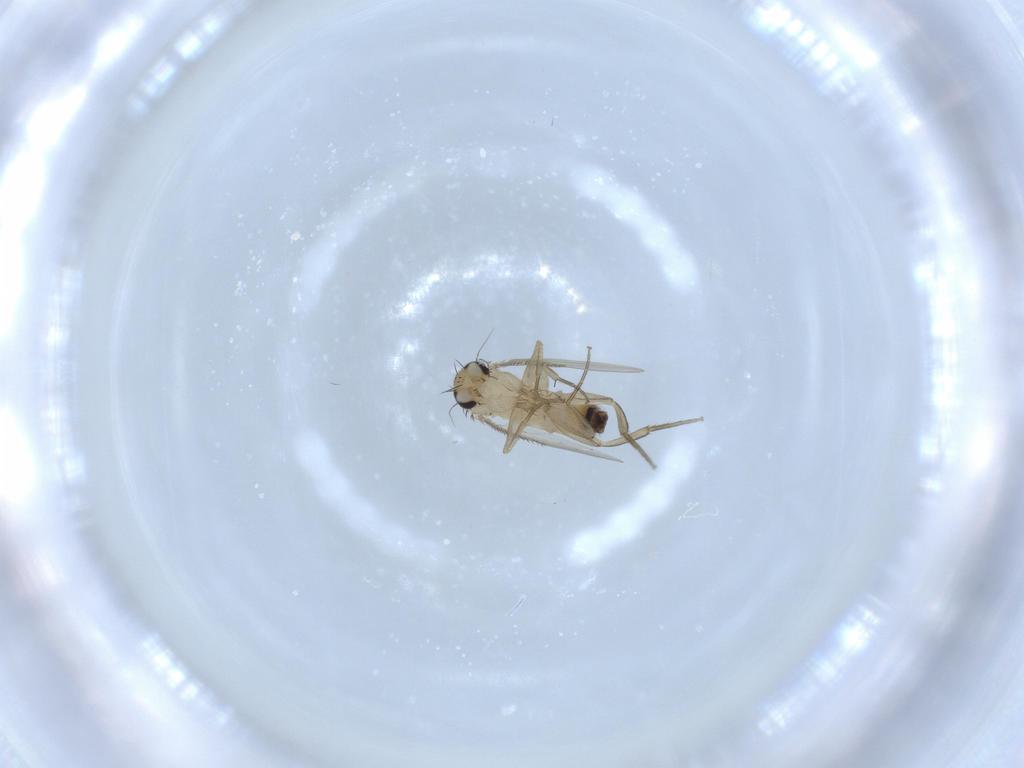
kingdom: Animalia
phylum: Arthropoda
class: Insecta
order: Diptera
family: Phoridae
